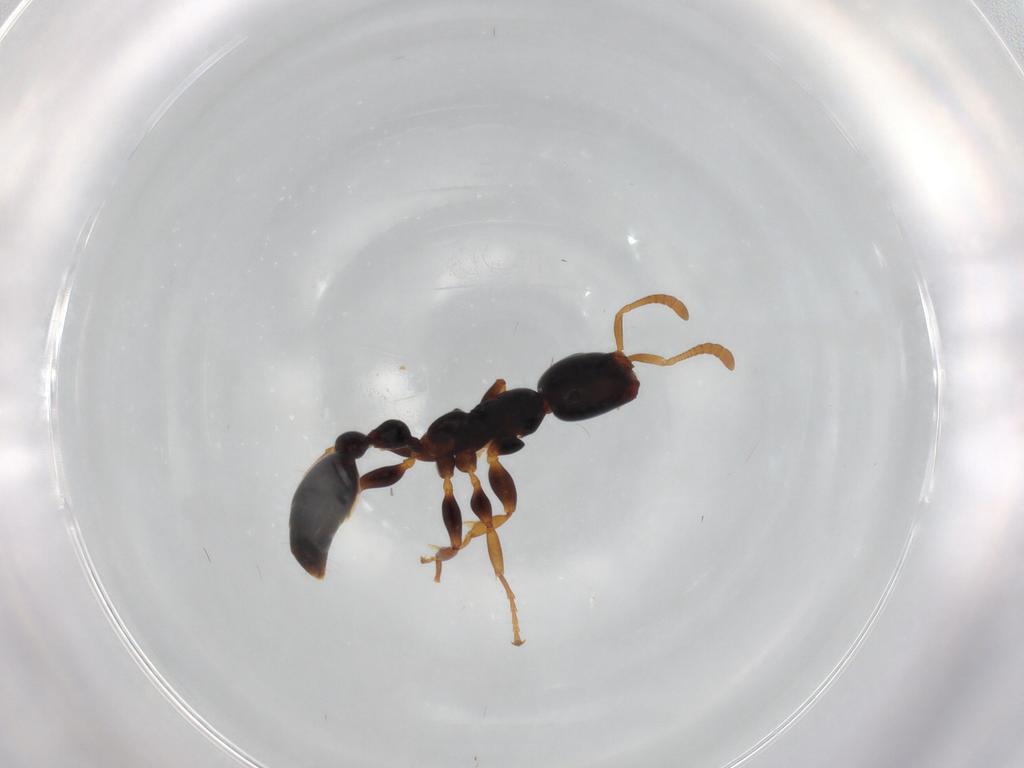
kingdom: Animalia
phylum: Arthropoda
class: Insecta
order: Hymenoptera
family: Formicidae
